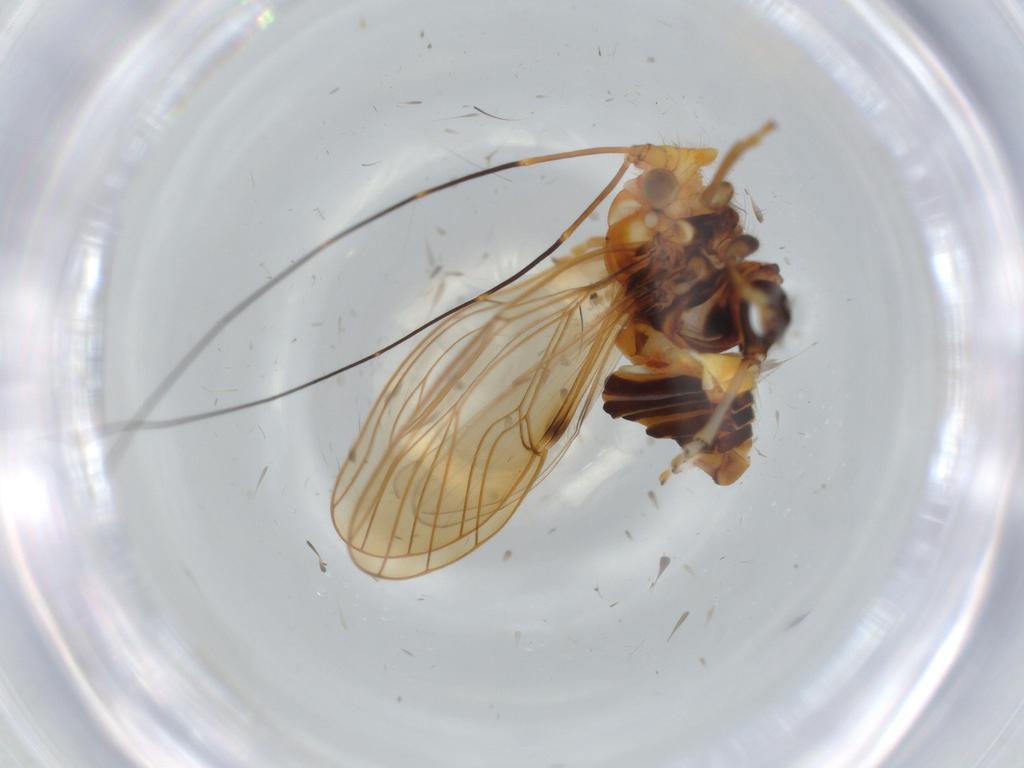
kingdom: Animalia
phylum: Arthropoda
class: Insecta
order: Hemiptera
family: Psyllidae
